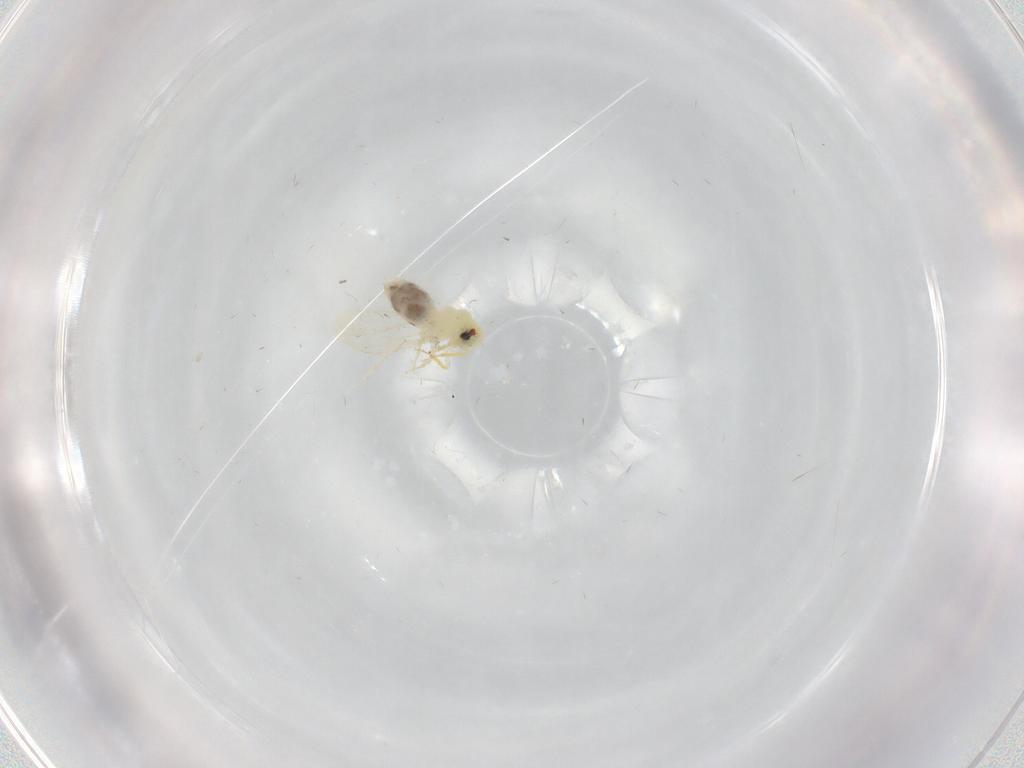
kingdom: Animalia
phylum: Arthropoda
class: Insecta
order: Hemiptera
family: Aleyrodidae
